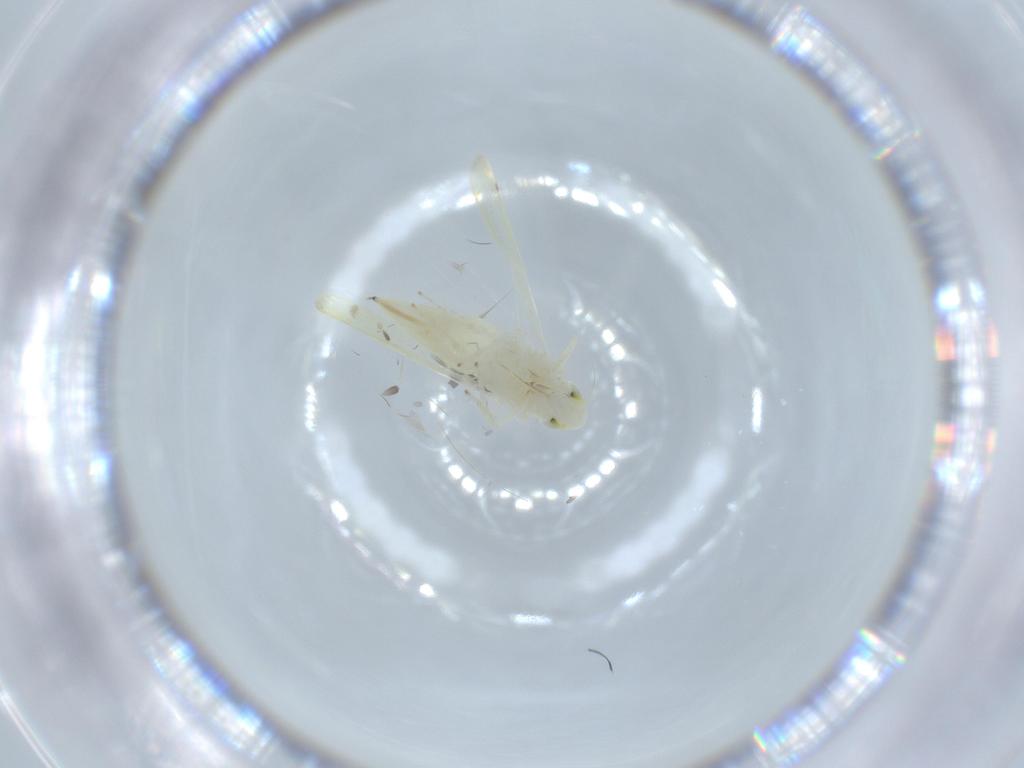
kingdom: Animalia
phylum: Arthropoda
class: Insecta
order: Hemiptera
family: Cicadellidae
